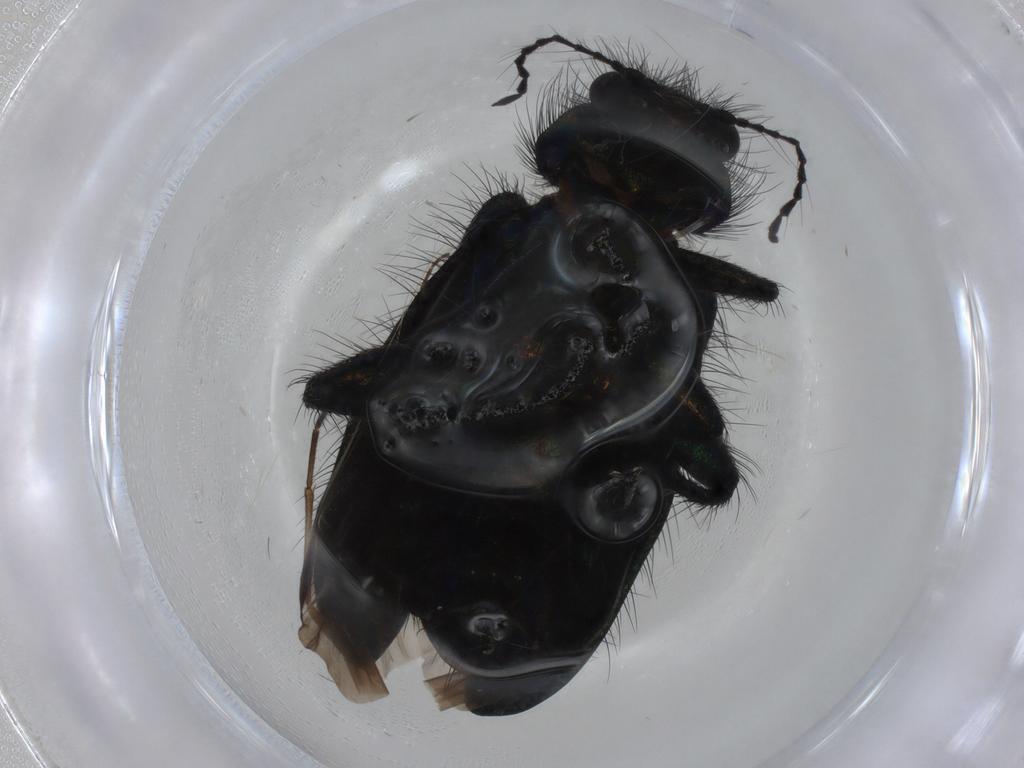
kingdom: Animalia
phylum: Arthropoda
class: Insecta
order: Coleoptera
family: Melyridae
